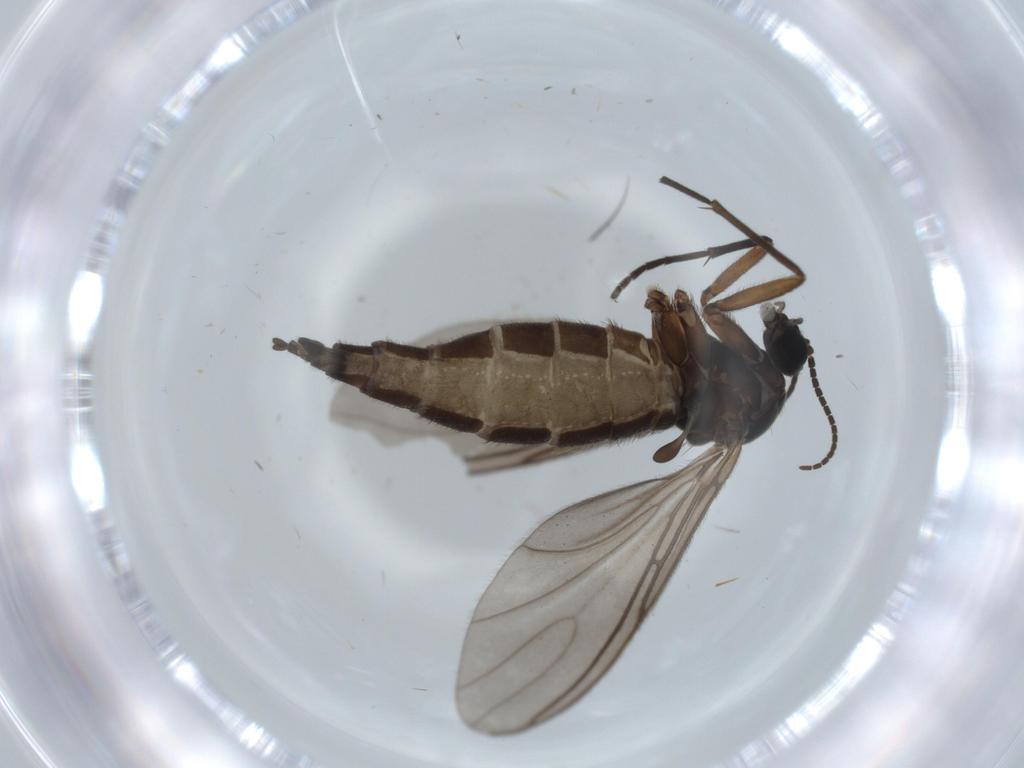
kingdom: Animalia
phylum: Arthropoda
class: Insecta
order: Diptera
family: Sciaridae
